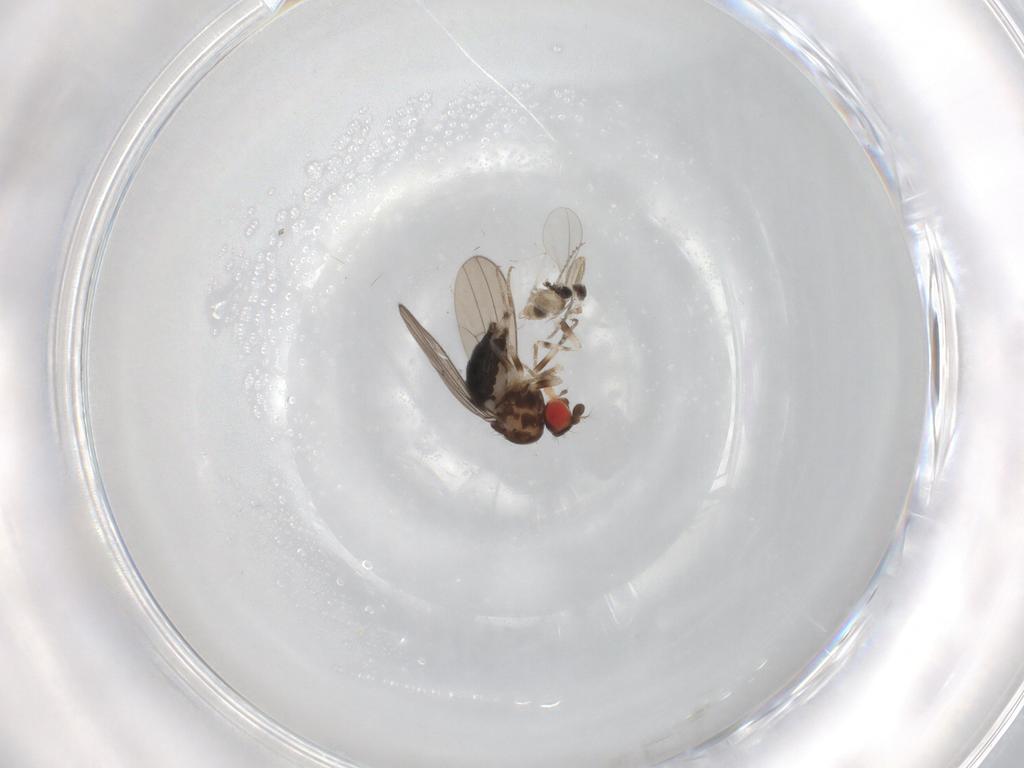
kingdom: Animalia
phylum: Arthropoda
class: Insecta
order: Diptera
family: Drosophilidae
